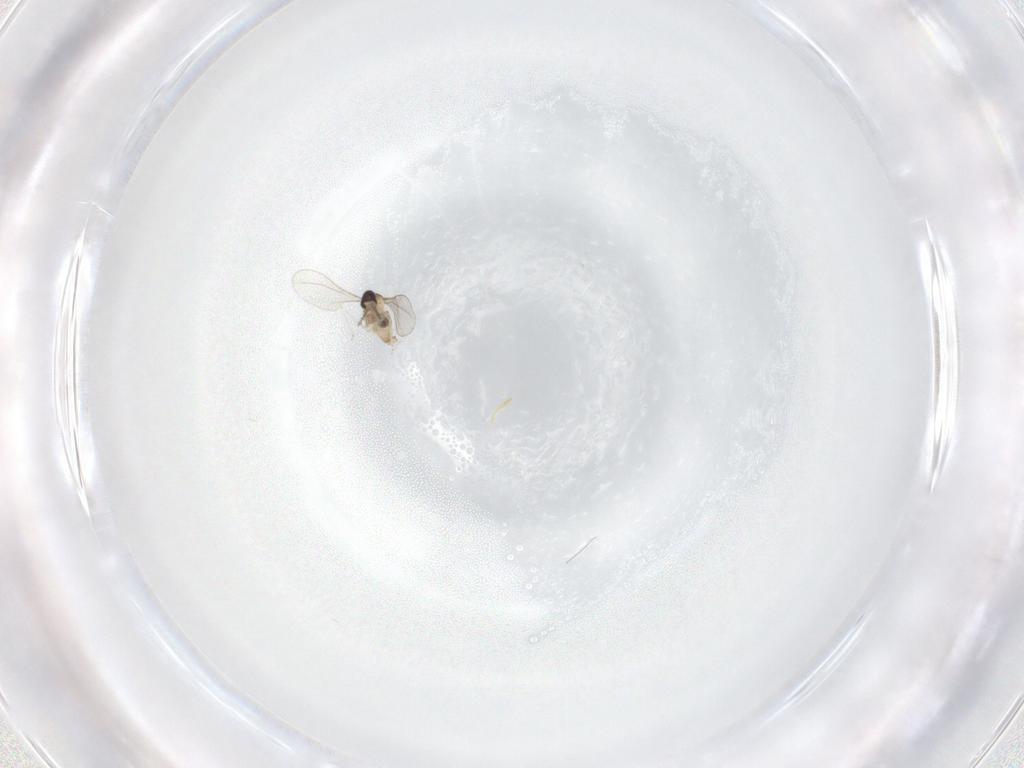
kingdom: Animalia
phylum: Arthropoda
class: Insecta
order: Diptera
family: Cecidomyiidae
